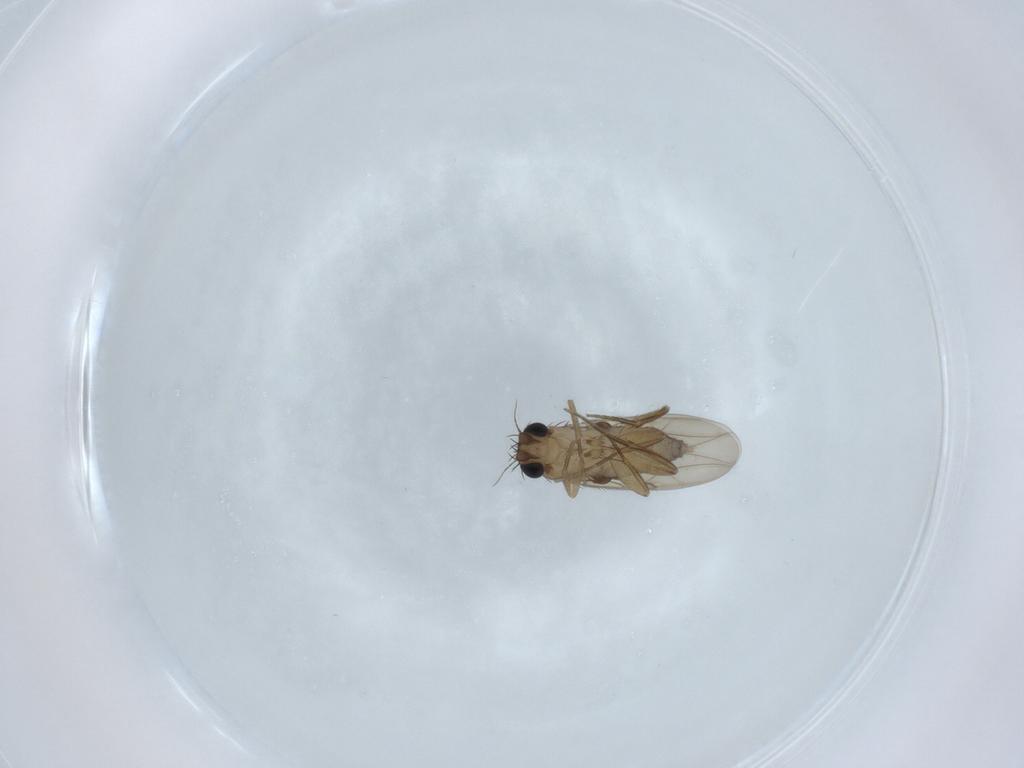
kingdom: Animalia
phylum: Arthropoda
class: Insecta
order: Diptera
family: Phoridae
